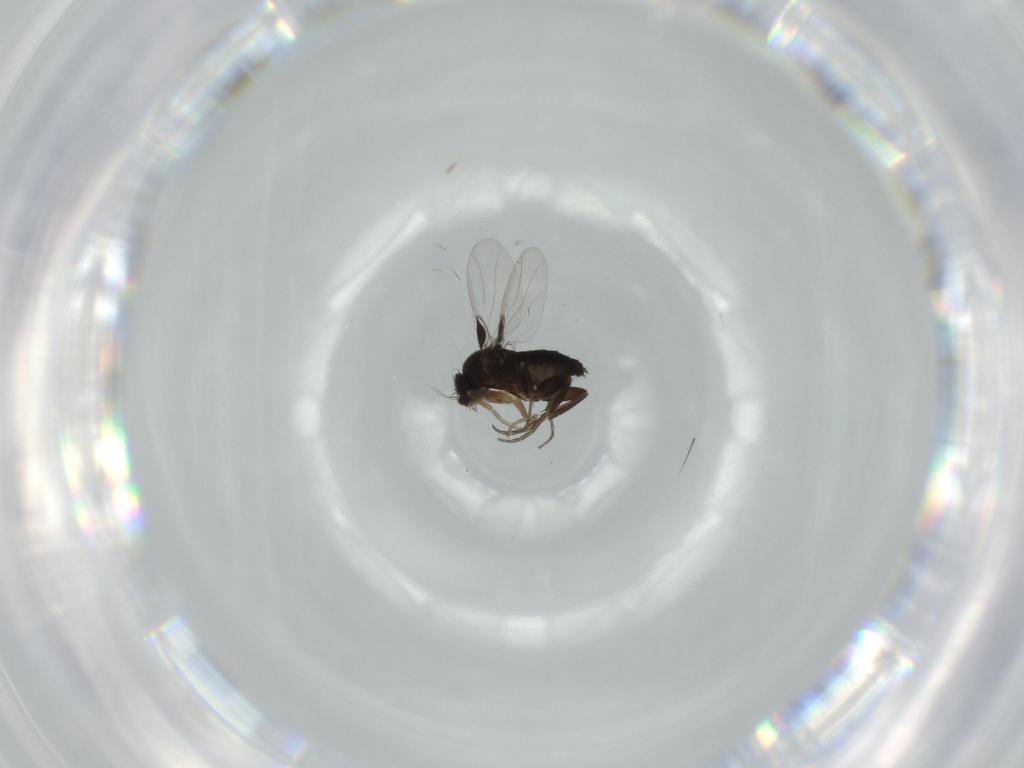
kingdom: Animalia
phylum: Arthropoda
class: Insecta
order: Diptera
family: Phoridae
